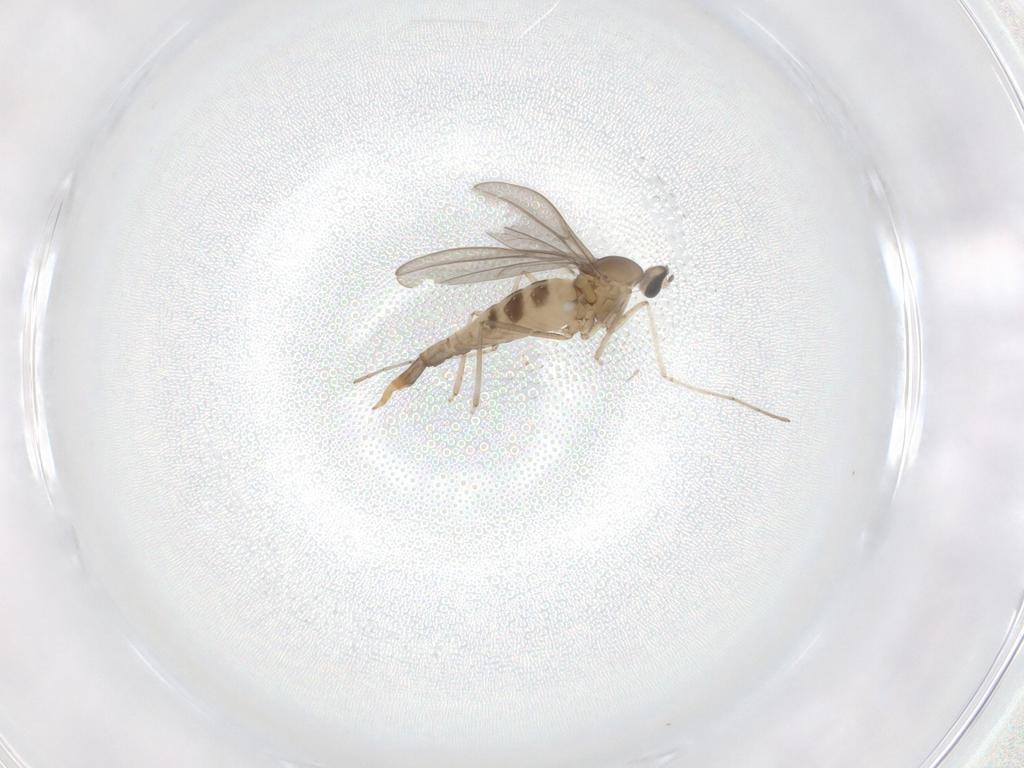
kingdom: Animalia
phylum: Arthropoda
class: Insecta
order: Diptera
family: Cecidomyiidae
